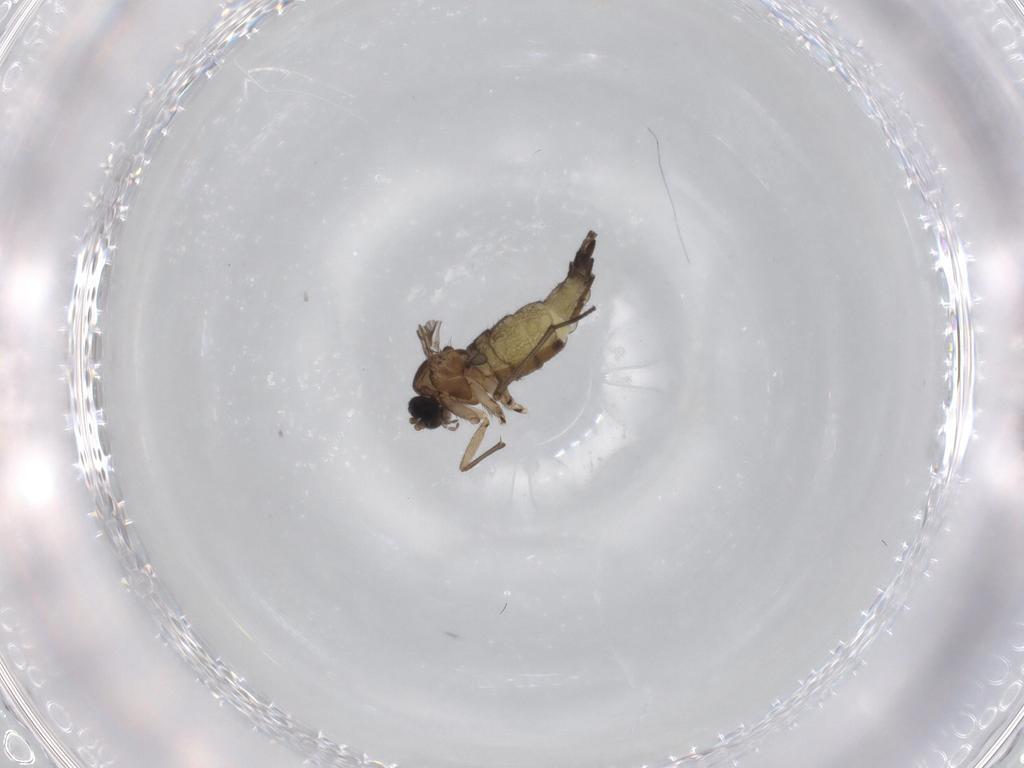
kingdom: Animalia
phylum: Arthropoda
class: Insecta
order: Diptera
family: Sciaridae
